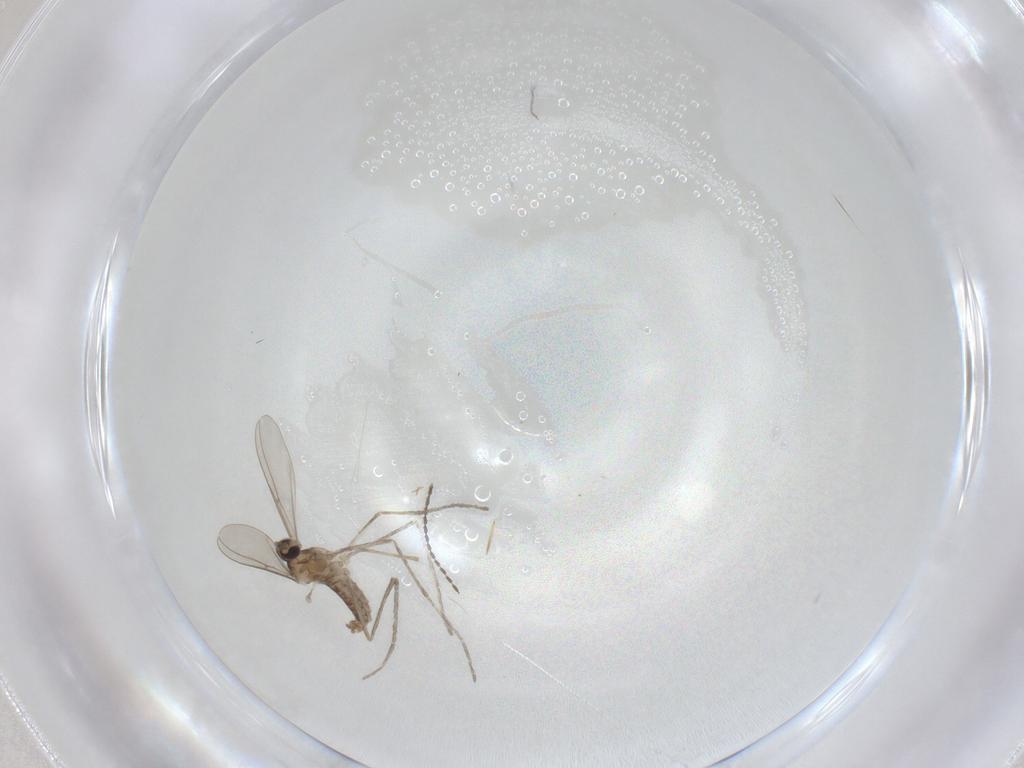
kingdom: Animalia
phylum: Arthropoda
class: Insecta
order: Diptera
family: Cecidomyiidae
